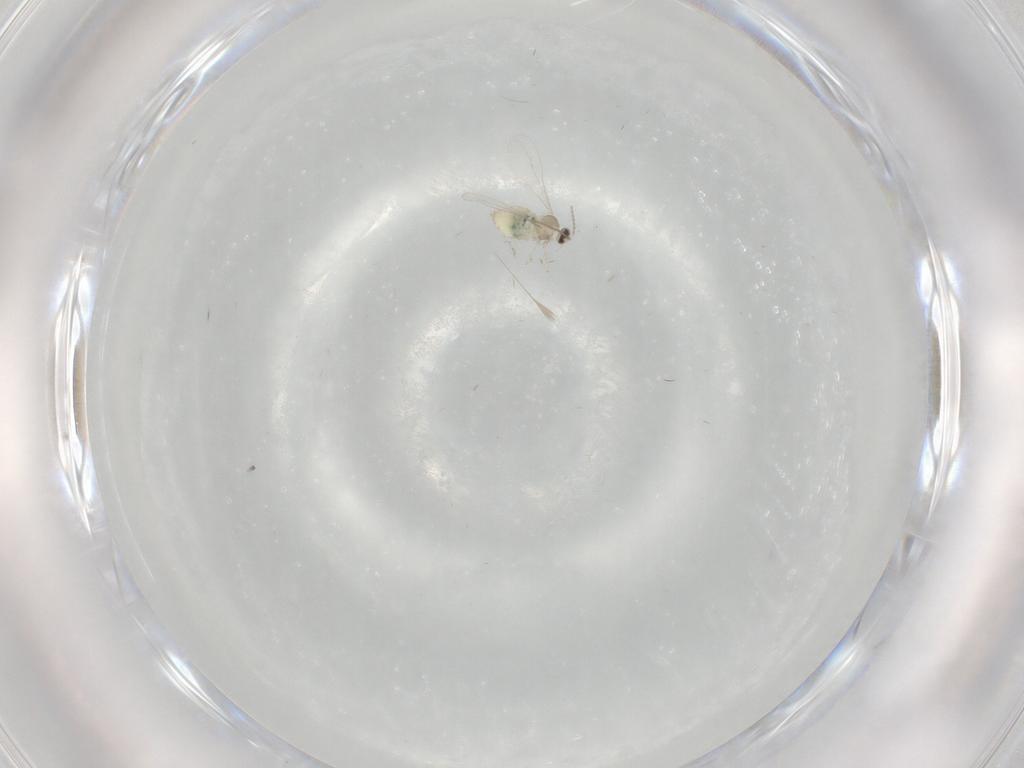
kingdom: Animalia
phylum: Arthropoda
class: Insecta
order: Diptera
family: Cecidomyiidae
